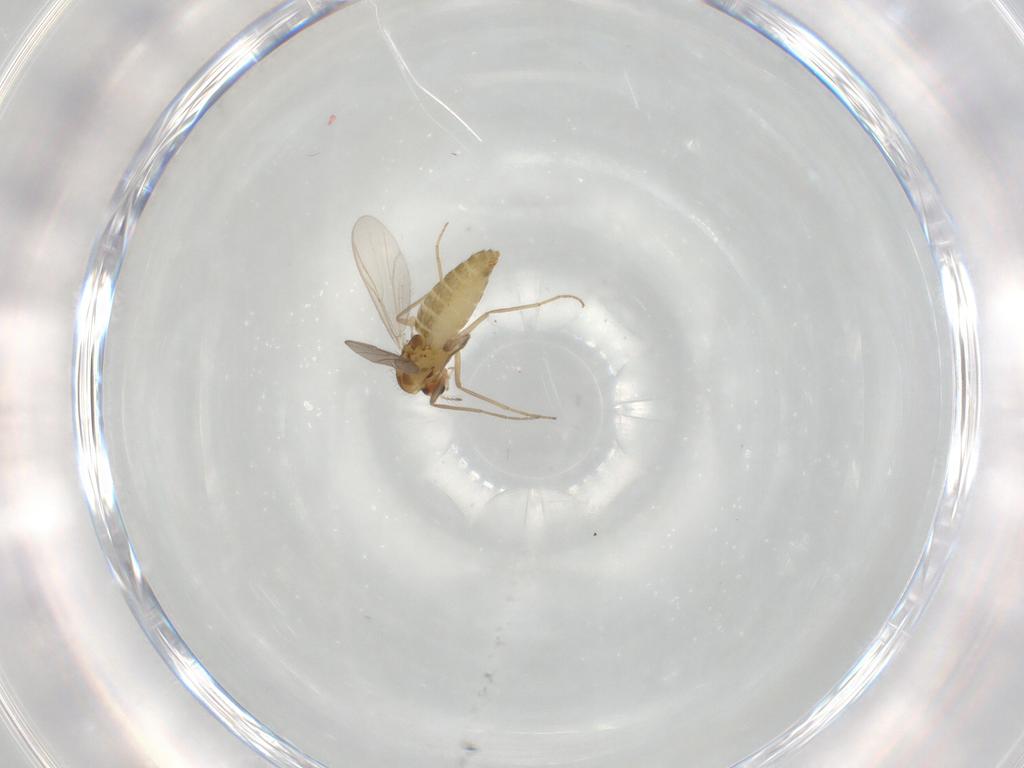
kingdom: Animalia
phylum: Arthropoda
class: Insecta
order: Diptera
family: Chironomidae
